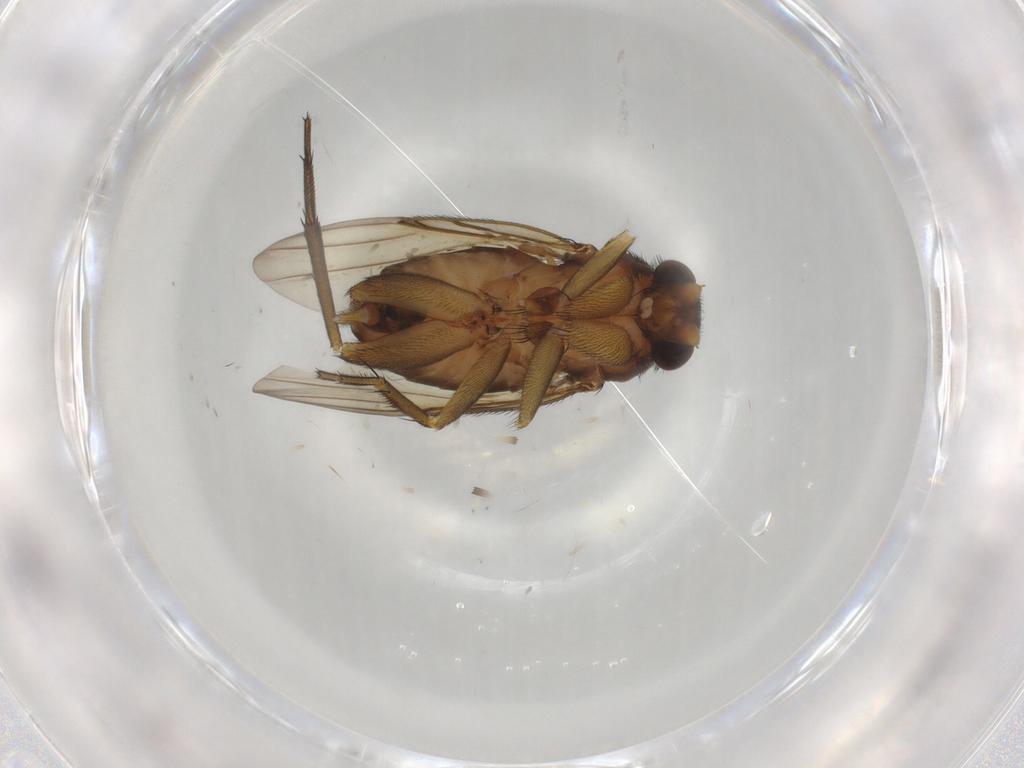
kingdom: Animalia
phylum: Arthropoda
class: Insecta
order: Diptera
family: Phoridae
